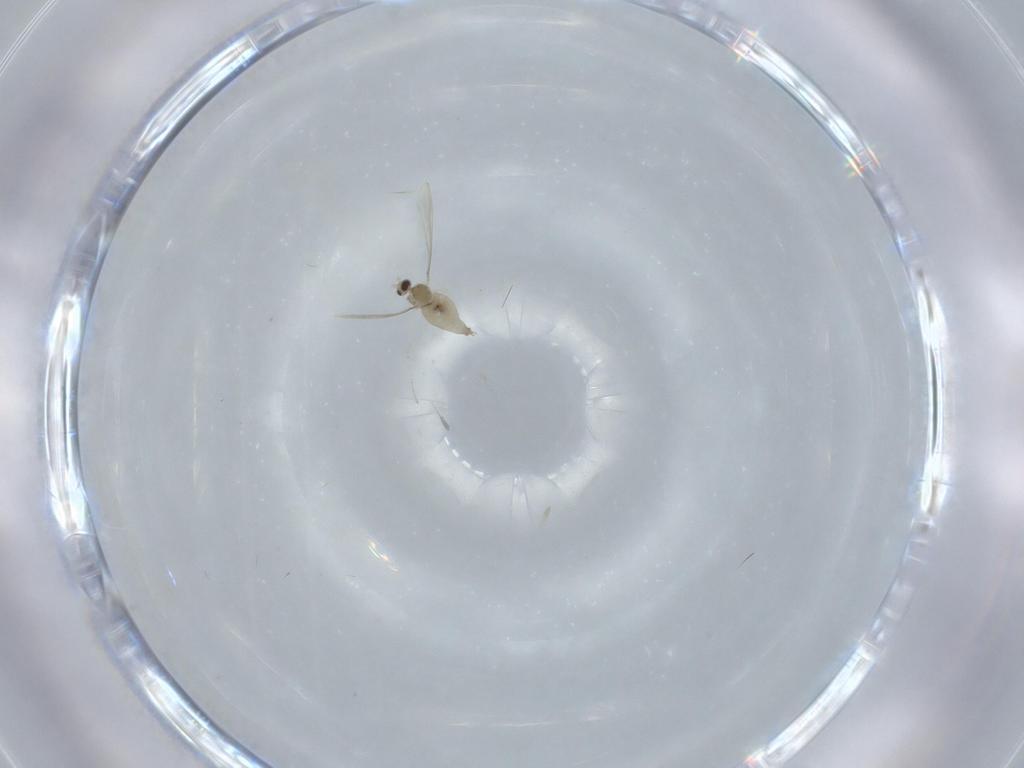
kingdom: Animalia
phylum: Arthropoda
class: Insecta
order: Diptera
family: Cecidomyiidae
